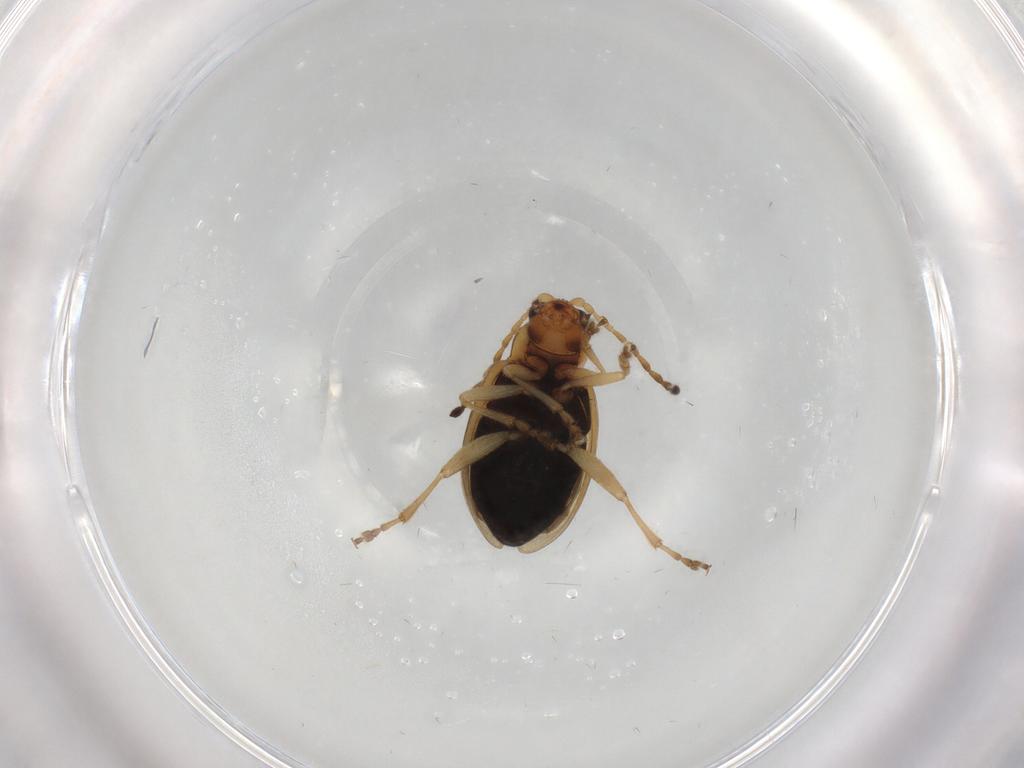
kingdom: Animalia
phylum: Arthropoda
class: Insecta
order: Coleoptera
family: Chrysomelidae
